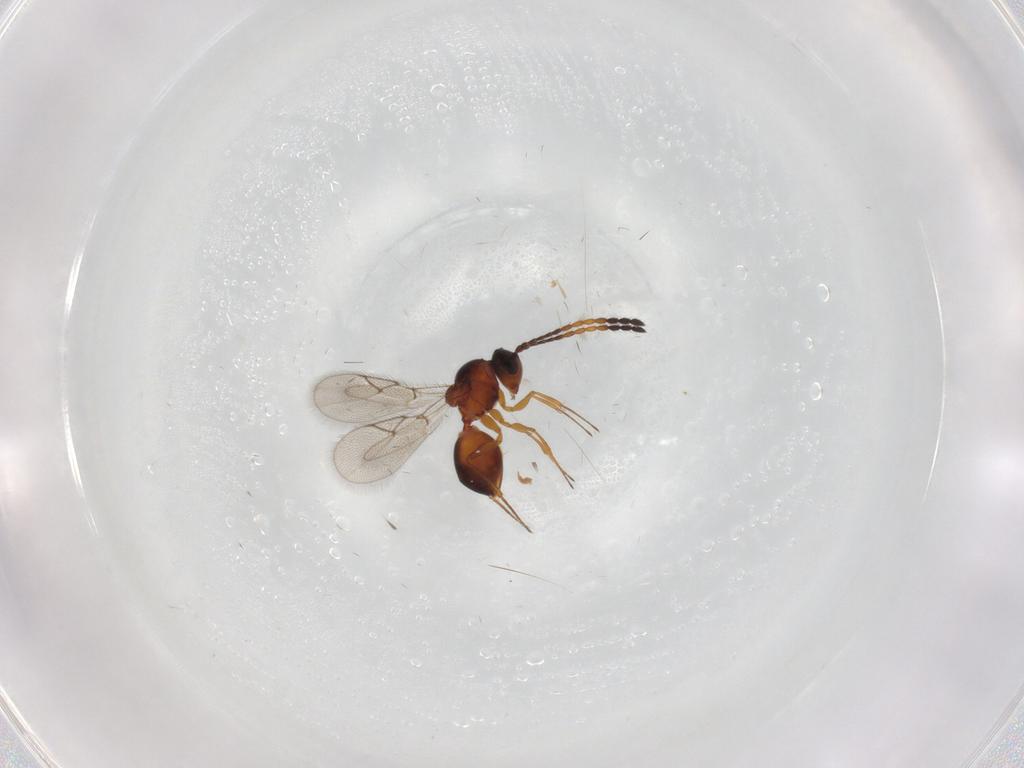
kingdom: Animalia
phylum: Arthropoda
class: Insecta
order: Hymenoptera
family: Figitidae
